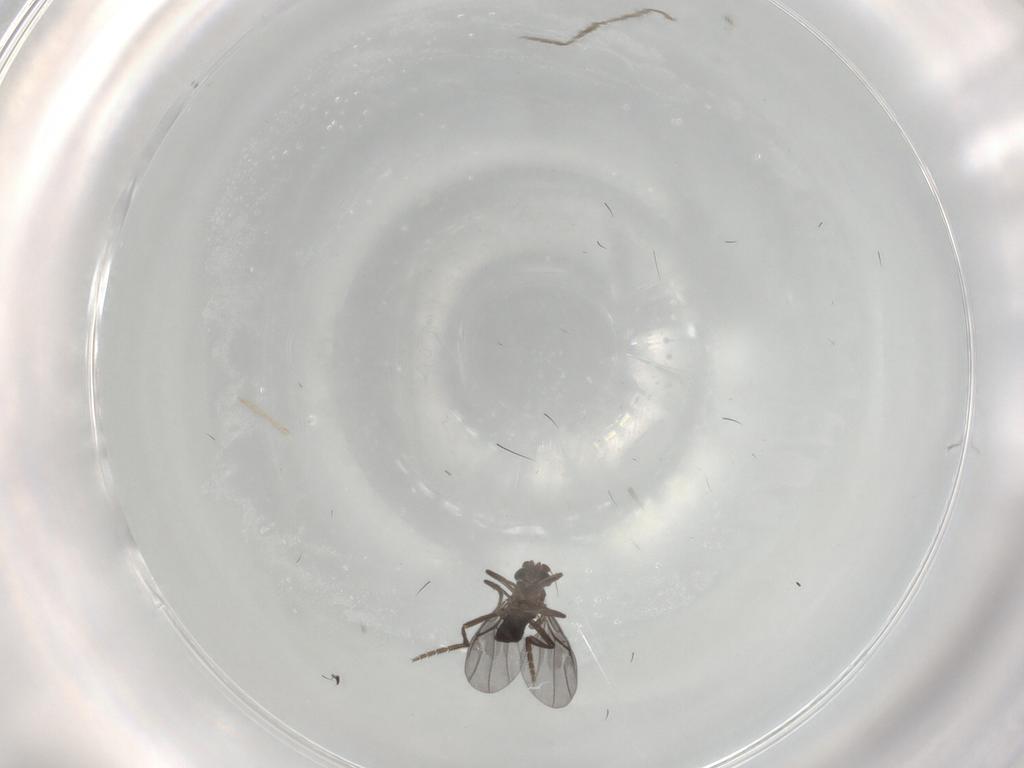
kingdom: Animalia
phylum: Arthropoda
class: Insecta
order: Diptera
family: Phoridae
